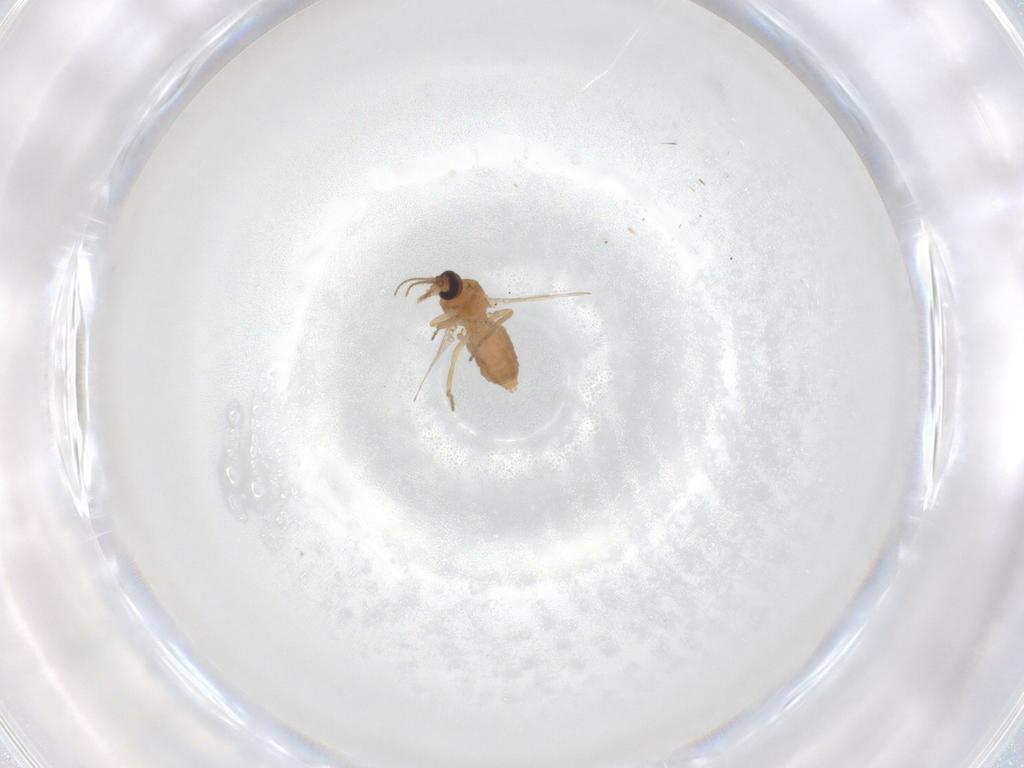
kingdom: Animalia
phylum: Arthropoda
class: Insecta
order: Diptera
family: Ceratopogonidae
